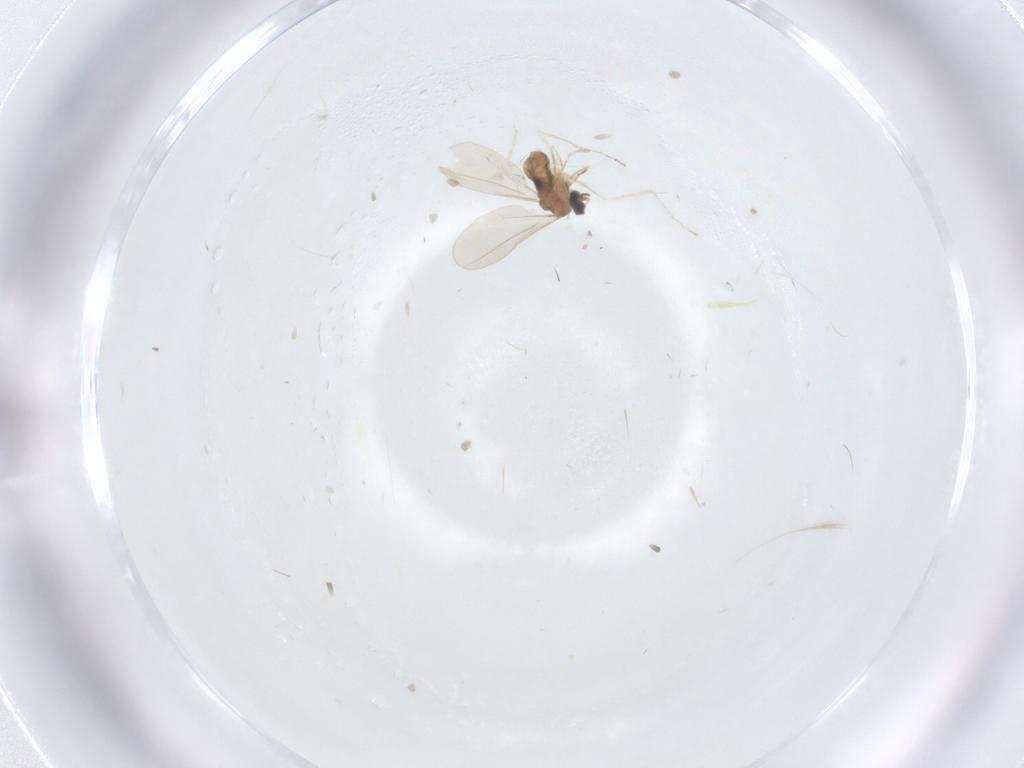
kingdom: Animalia
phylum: Arthropoda
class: Insecta
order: Diptera
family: Cecidomyiidae
